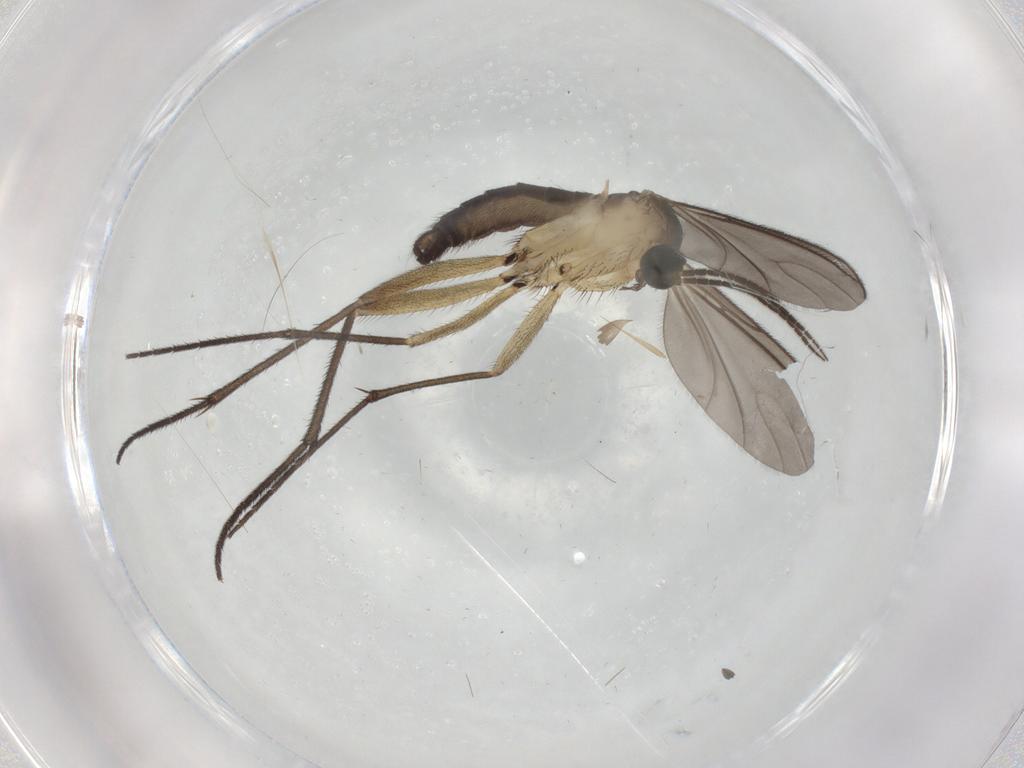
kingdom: Animalia
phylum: Arthropoda
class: Insecta
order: Diptera
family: Sciaridae
